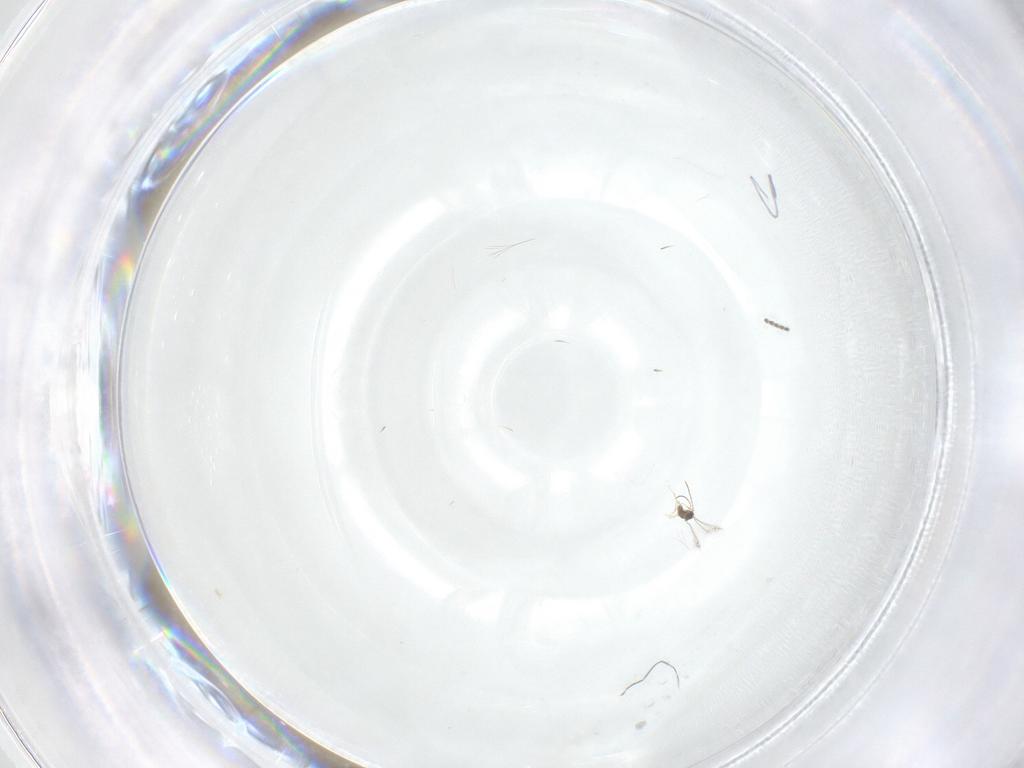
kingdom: Animalia
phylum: Arthropoda
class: Insecta
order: Diptera
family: Sciaridae
